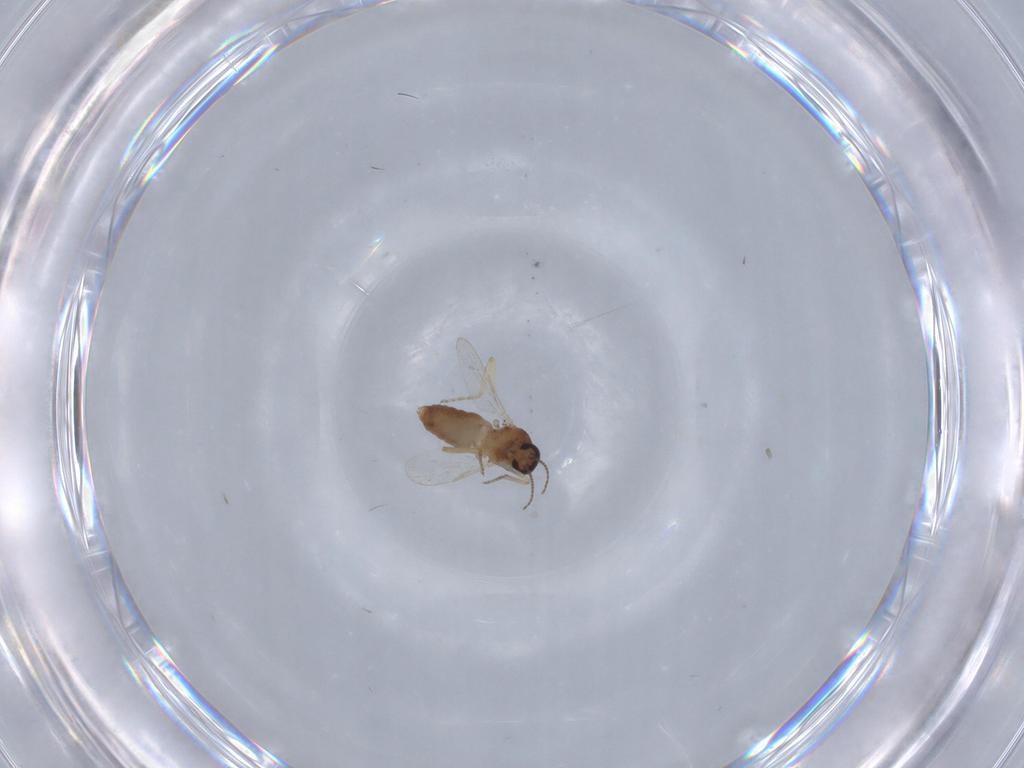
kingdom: Animalia
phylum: Arthropoda
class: Insecta
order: Diptera
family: Ceratopogonidae
